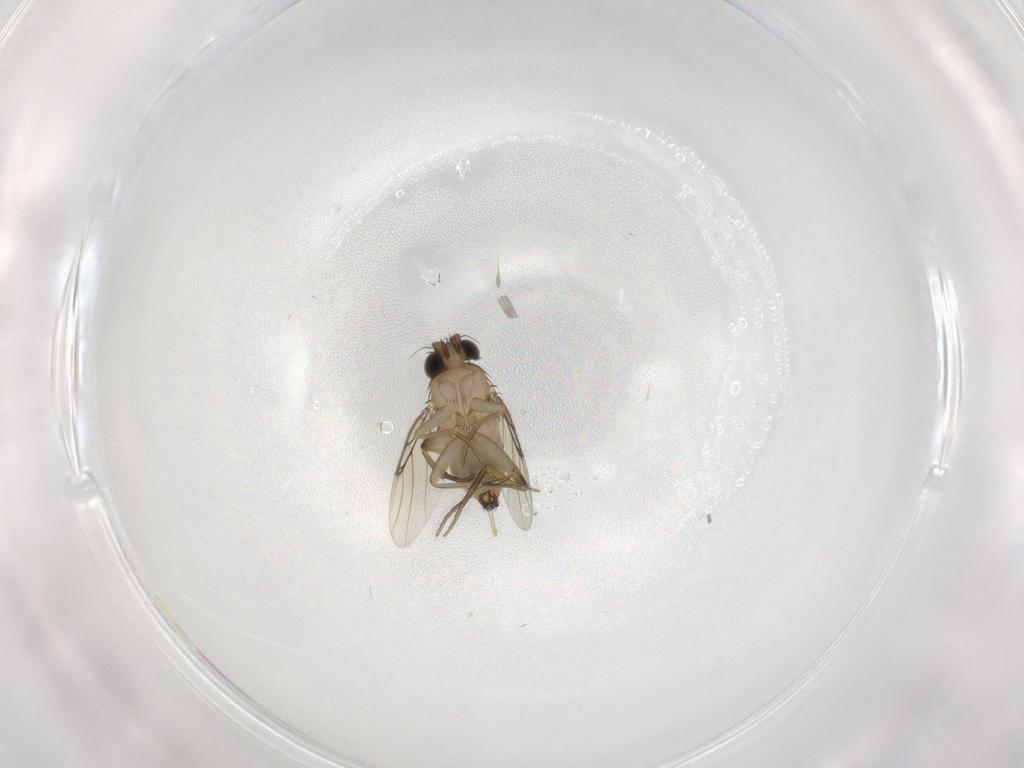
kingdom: Animalia
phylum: Arthropoda
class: Insecta
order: Diptera
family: Phoridae
